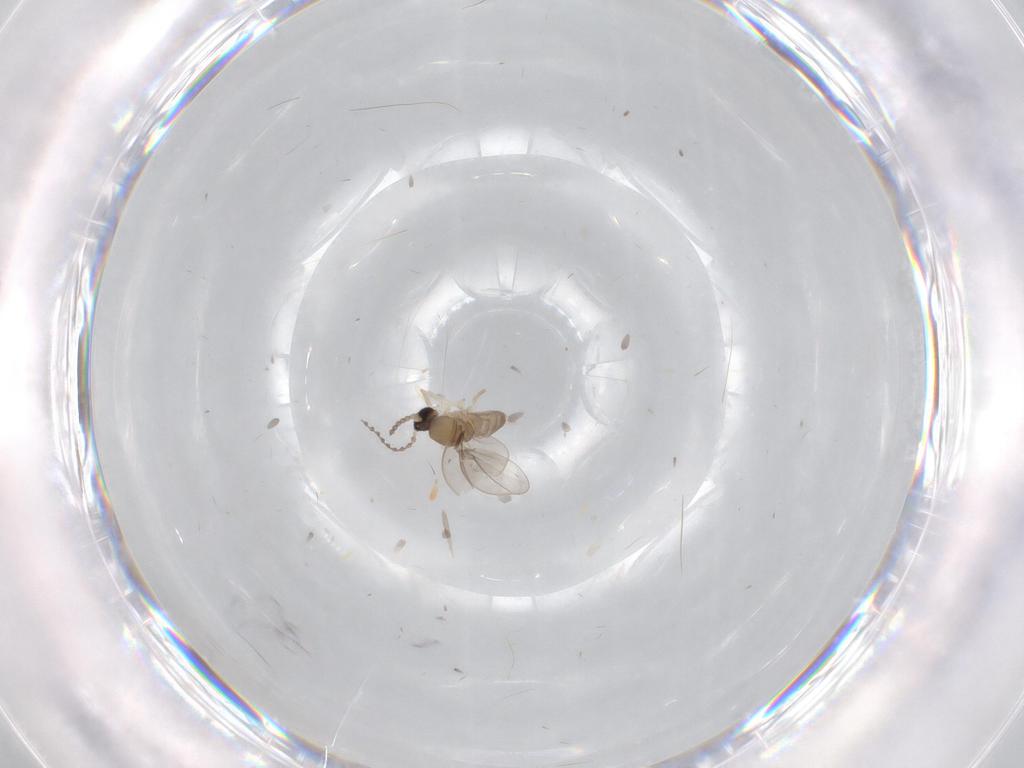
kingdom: Animalia
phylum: Arthropoda
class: Insecta
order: Diptera
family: Cecidomyiidae
